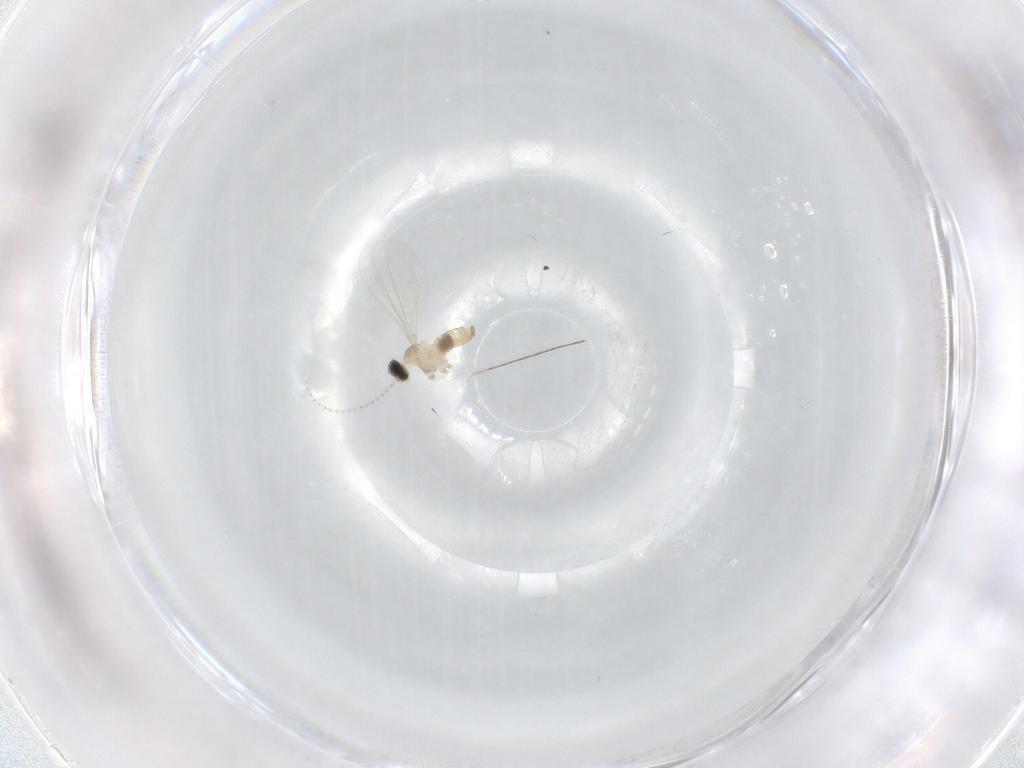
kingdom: Animalia
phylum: Arthropoda
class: Insecta
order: Diptera
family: Cecidomyiidae
